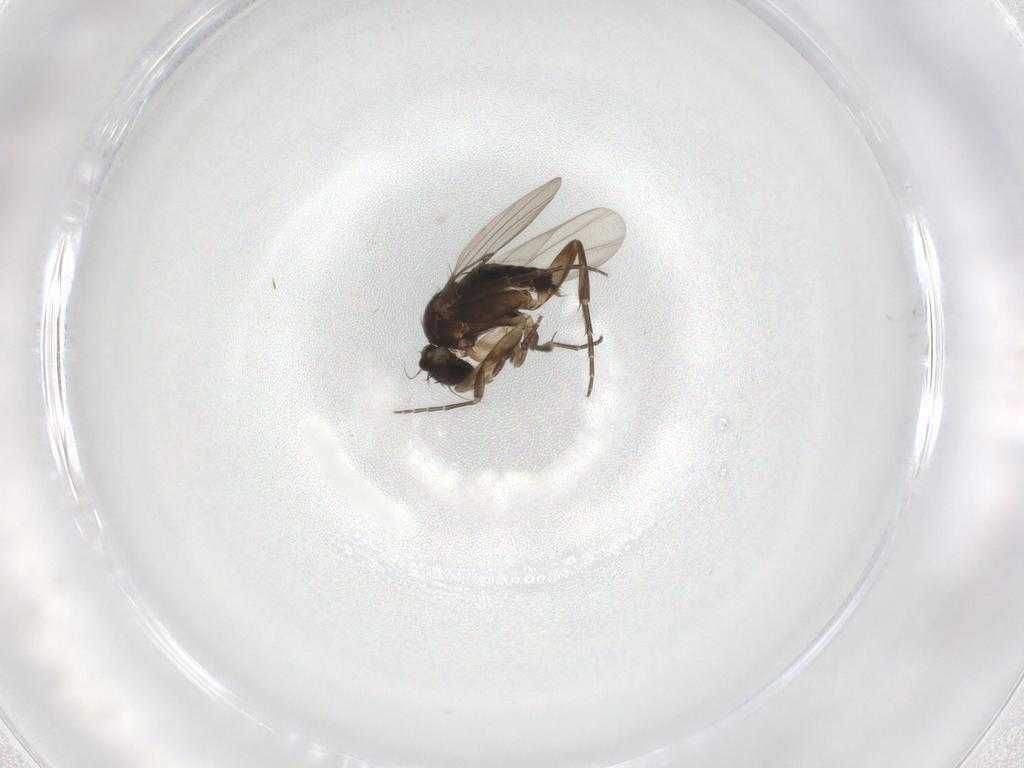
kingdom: Animalia
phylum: Arthropoda
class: Insecta
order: Diptera
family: Phoridae
